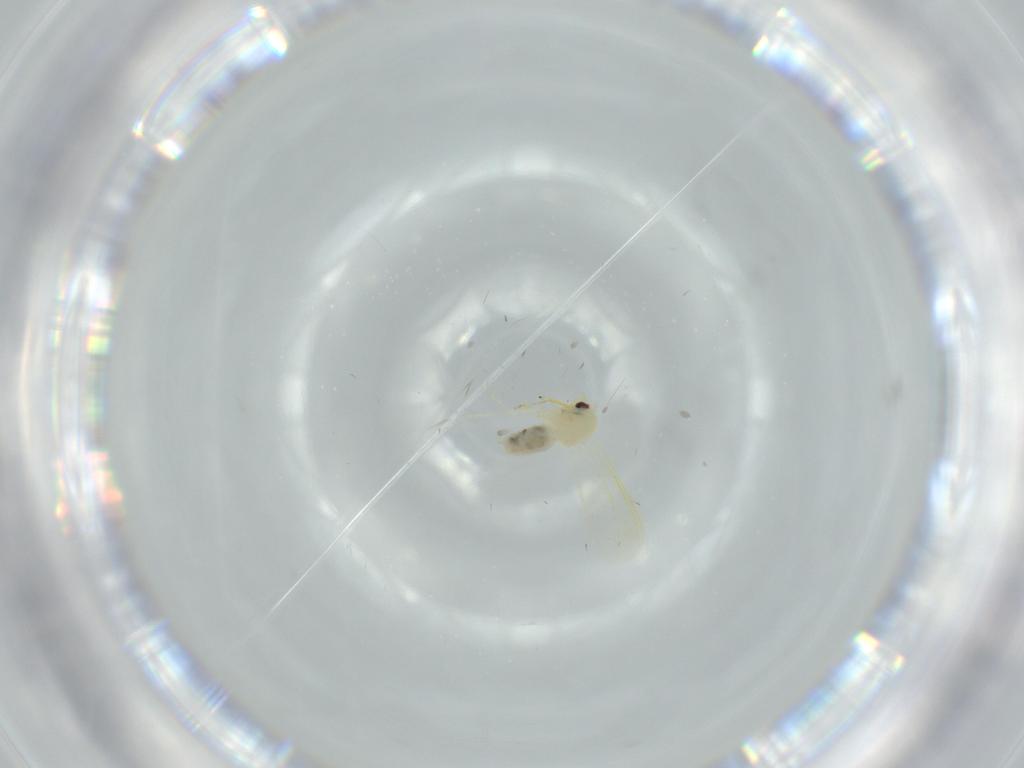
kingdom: Animalia
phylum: Arthropoda
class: Insecta
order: Hemiptera
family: Aleyrodidae
